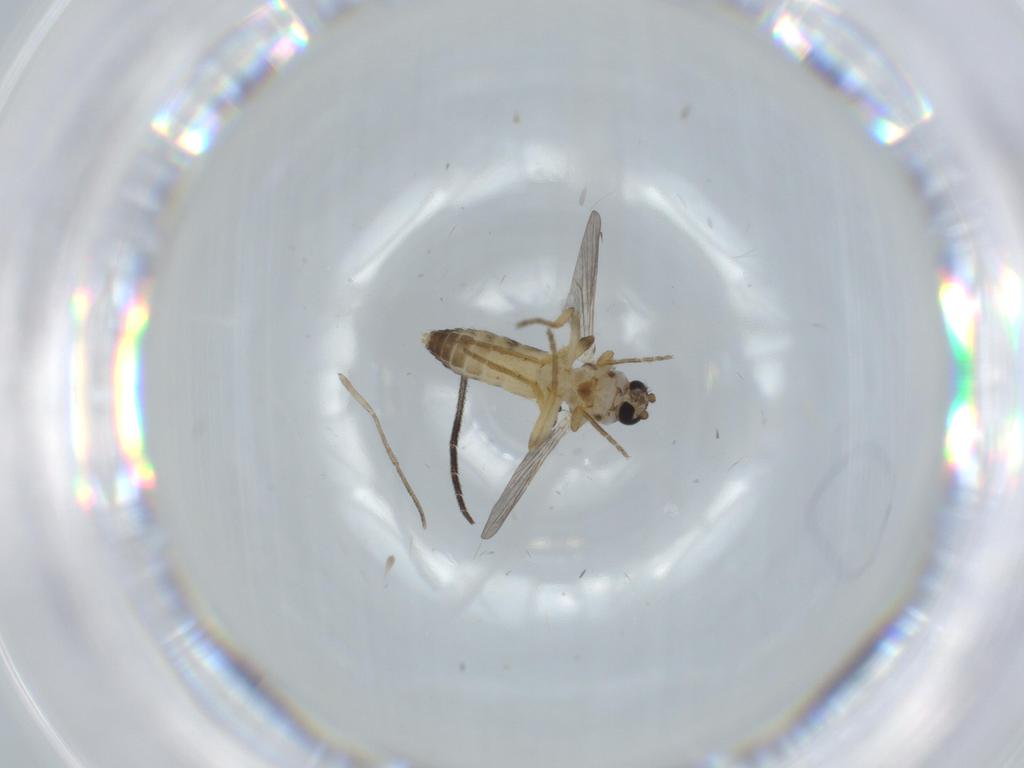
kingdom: Animalia
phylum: Arthropoda
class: Insecta
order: Diptera
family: Ceratopogonidae
